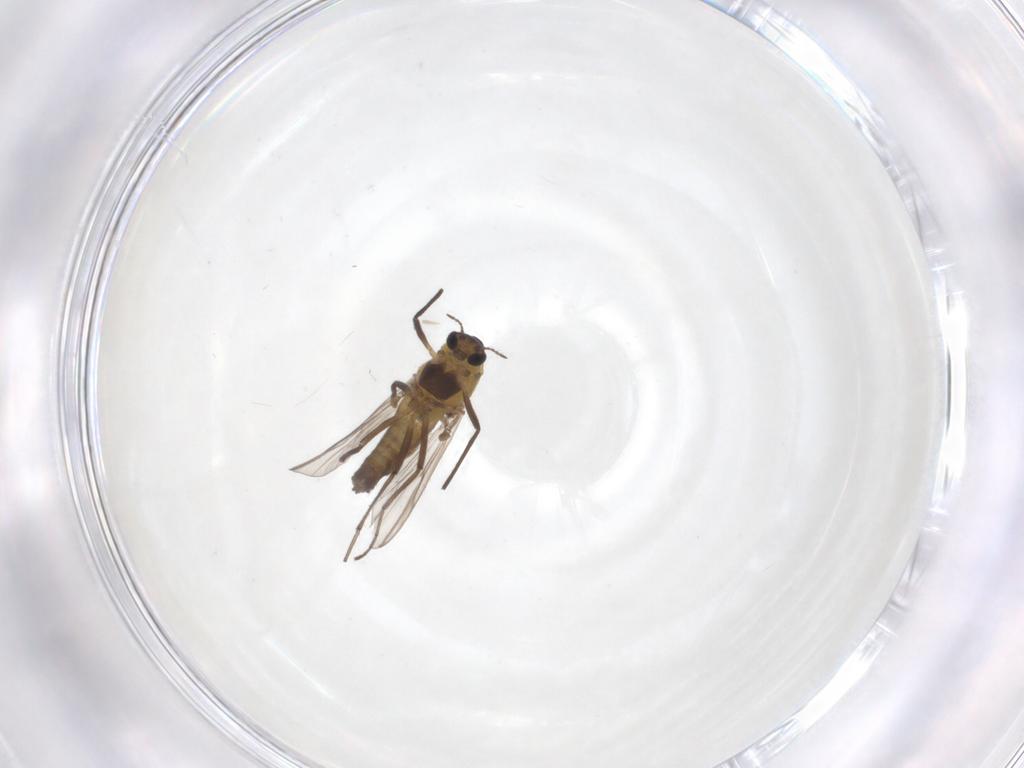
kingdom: Animalia
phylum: Arthropoda
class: Insecta
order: Diptera
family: Chironomidae
